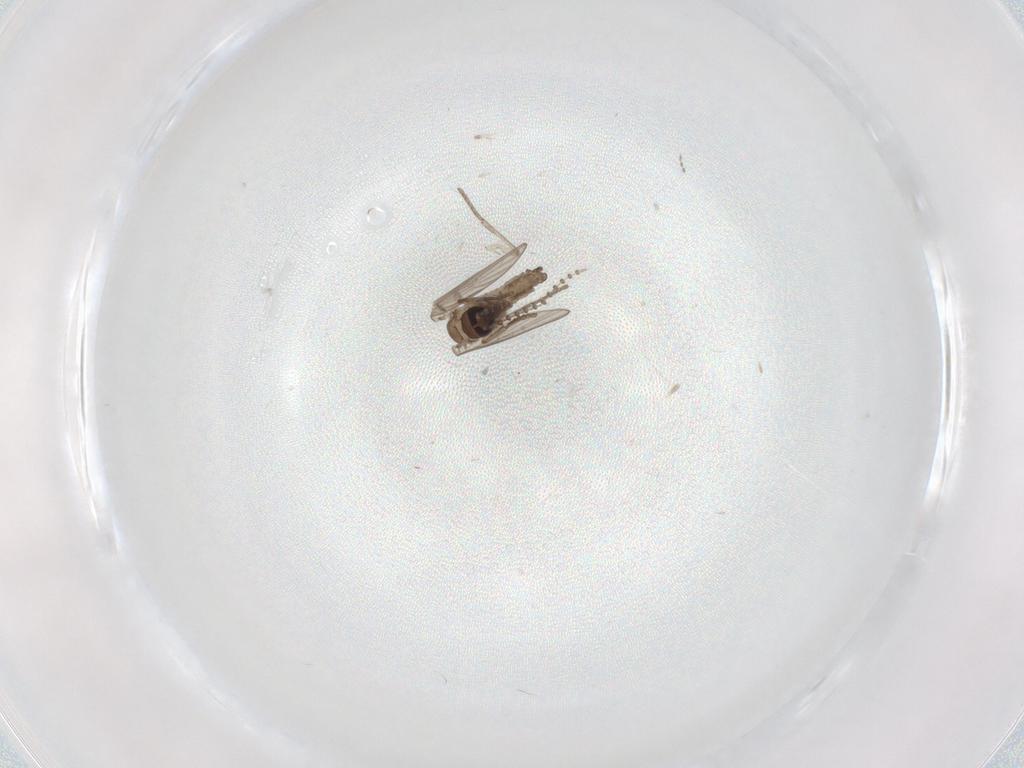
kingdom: Animalia
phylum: Arthropoda
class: Insecta
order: Diptera
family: Psychodidae
